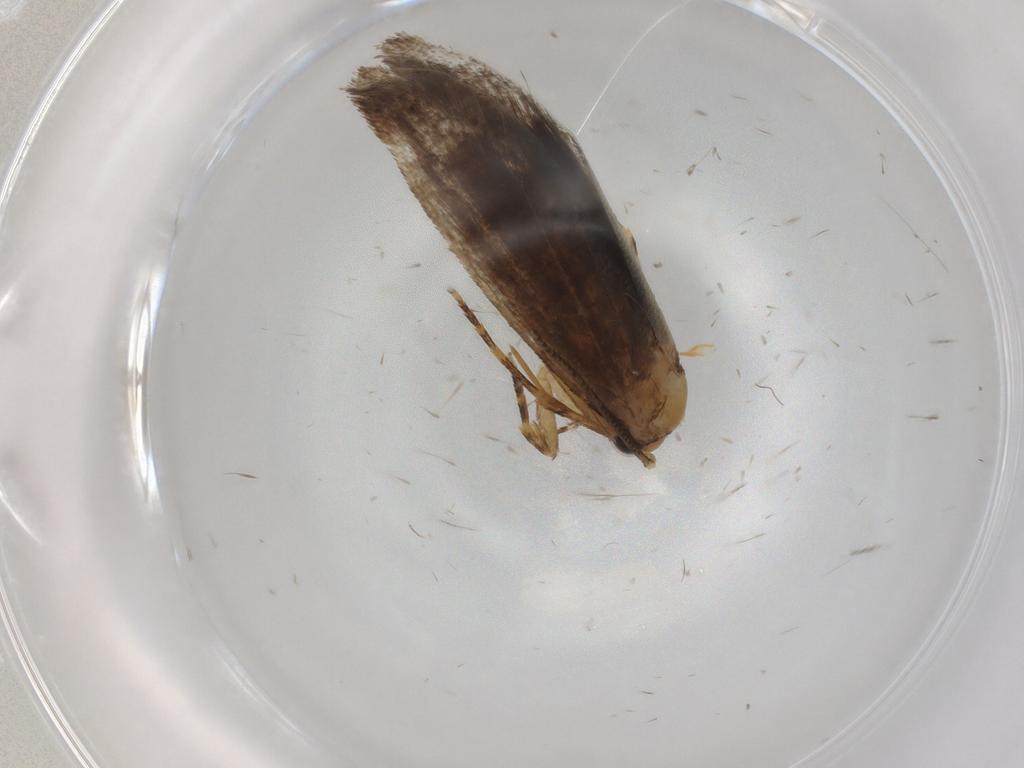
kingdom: Animalia
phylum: Arthropoda
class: Insecta
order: Lepidoptera
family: Tineidae
